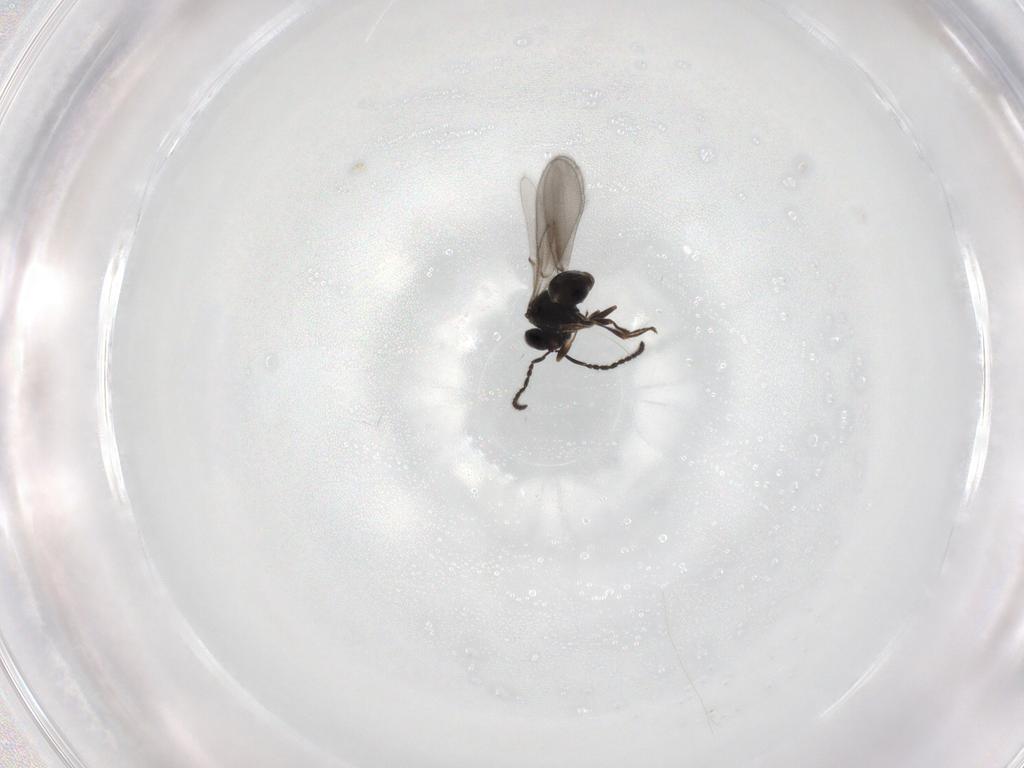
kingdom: Animalia
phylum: Arthropoda
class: Insecta
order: Hymenoptera
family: Scelionidae
